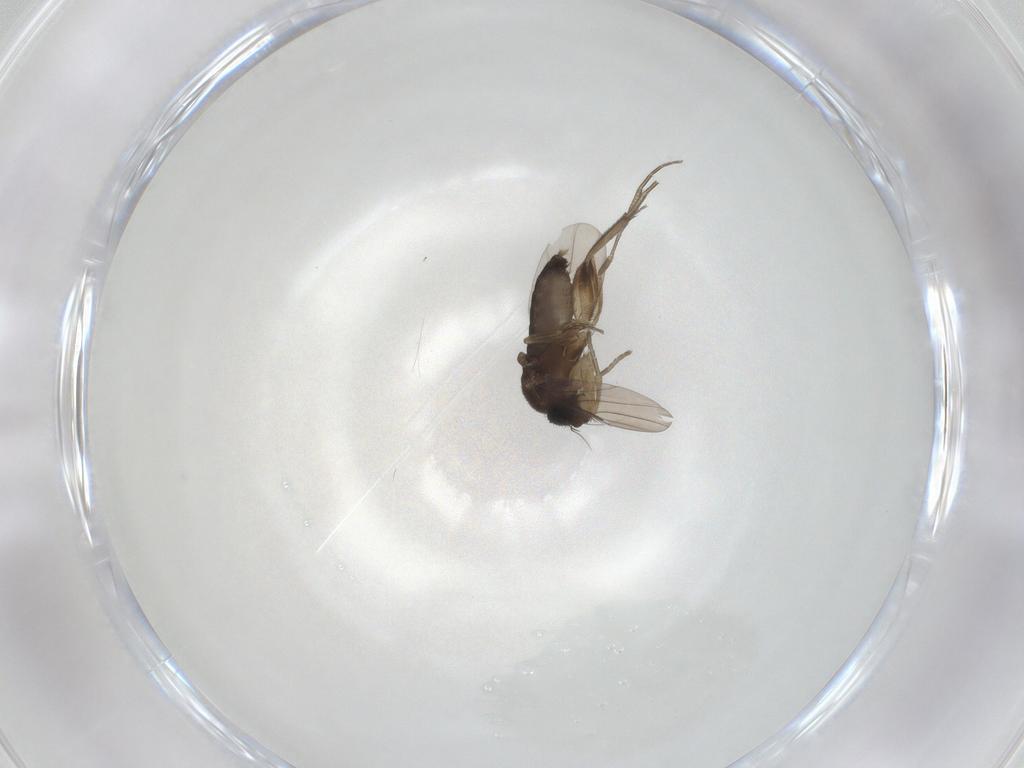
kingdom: Animalia
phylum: Arthropoda
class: Insecta
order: Diptera
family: Phoridae
